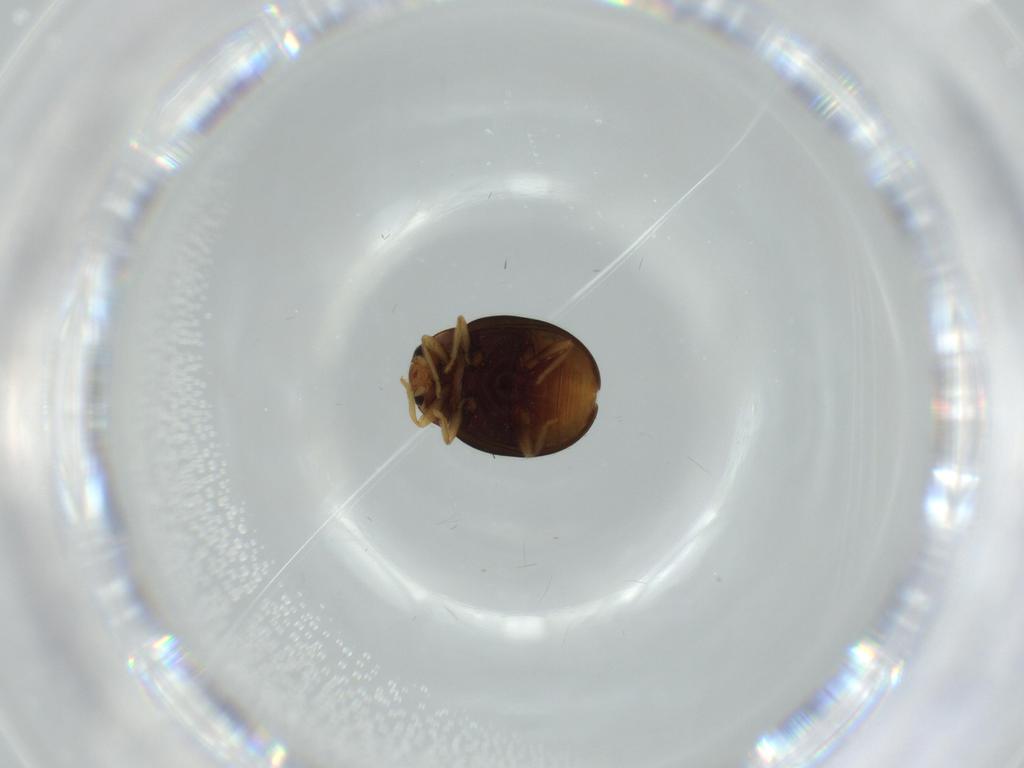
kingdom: Animalia
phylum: Arthropoda
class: Insecta
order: Coleoptera
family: Coccinellidae
